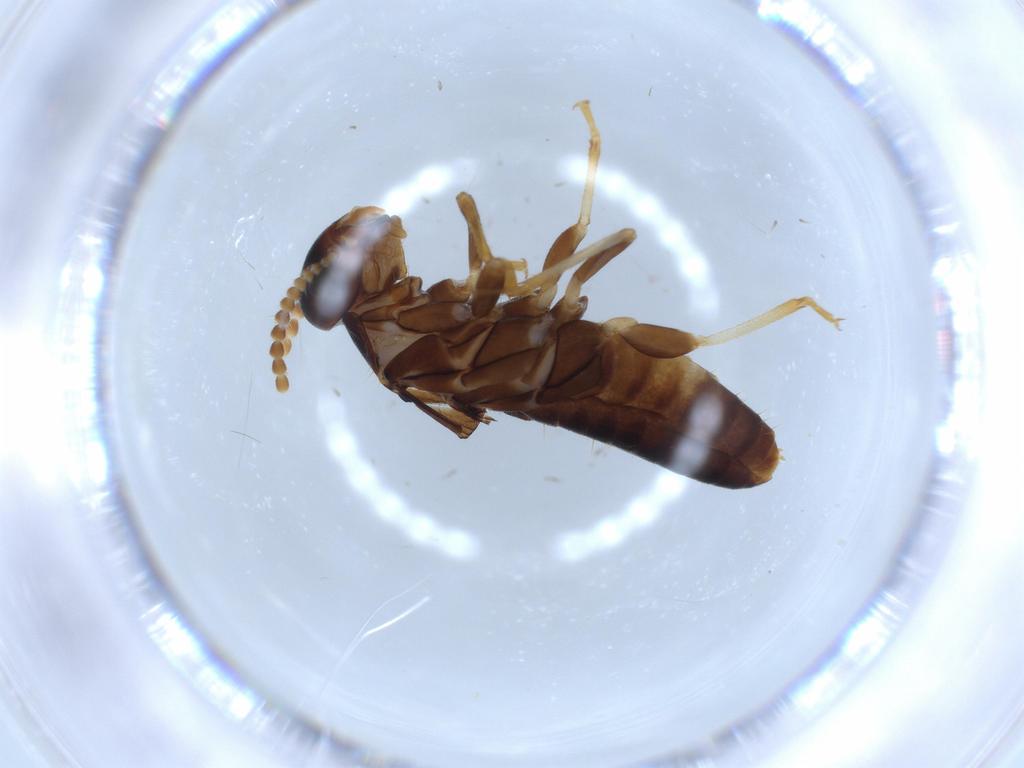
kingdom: Animalia
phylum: Arthropoda
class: Insecta
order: Blattodea
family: Kalotermitidae
